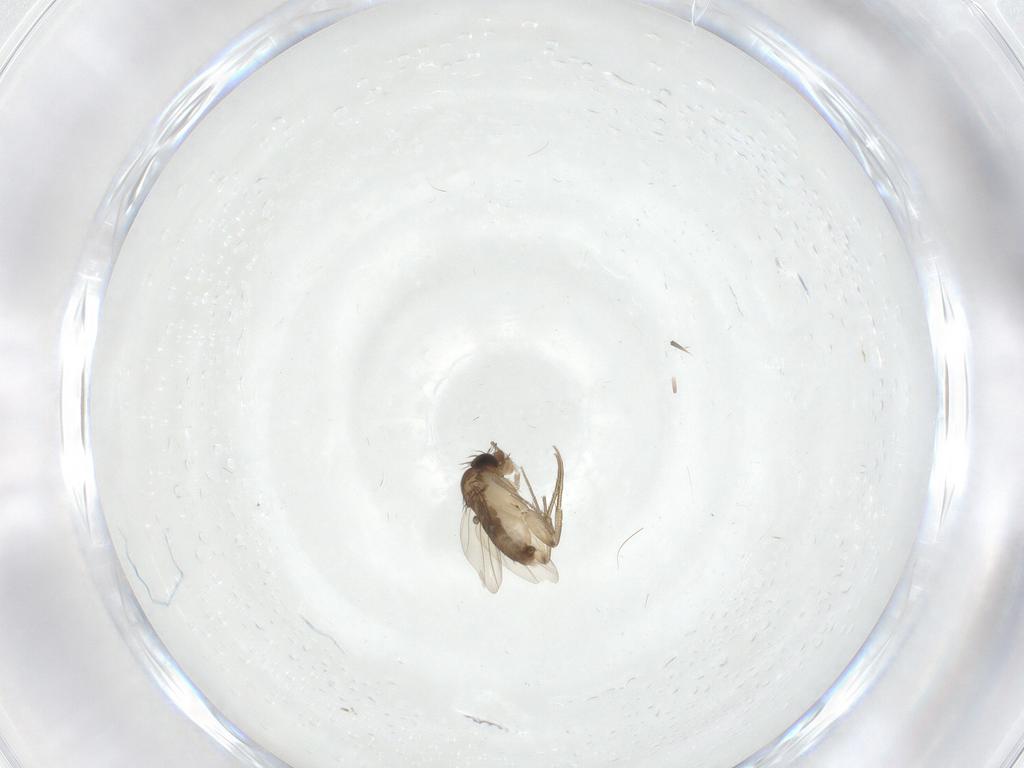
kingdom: Animalia
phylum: Arthropoda
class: Insecta
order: Diptera
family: Phoridae
